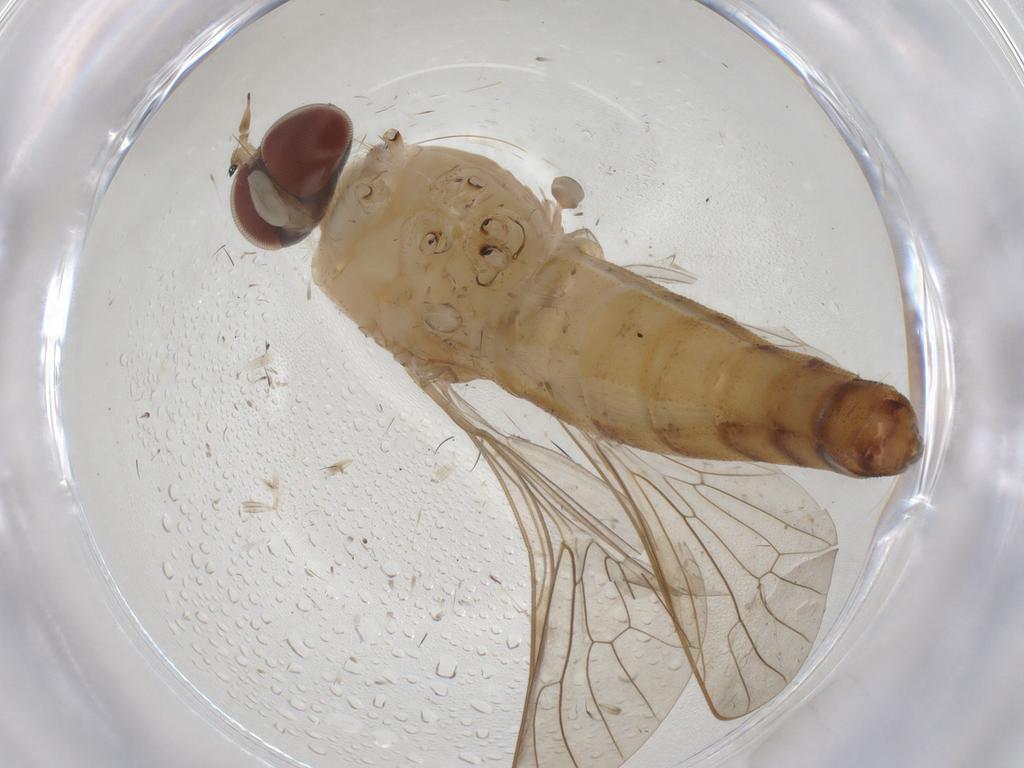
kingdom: Animalia
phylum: Arthropoda
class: Insecta
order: Diptera
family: Apsilocephalidae
